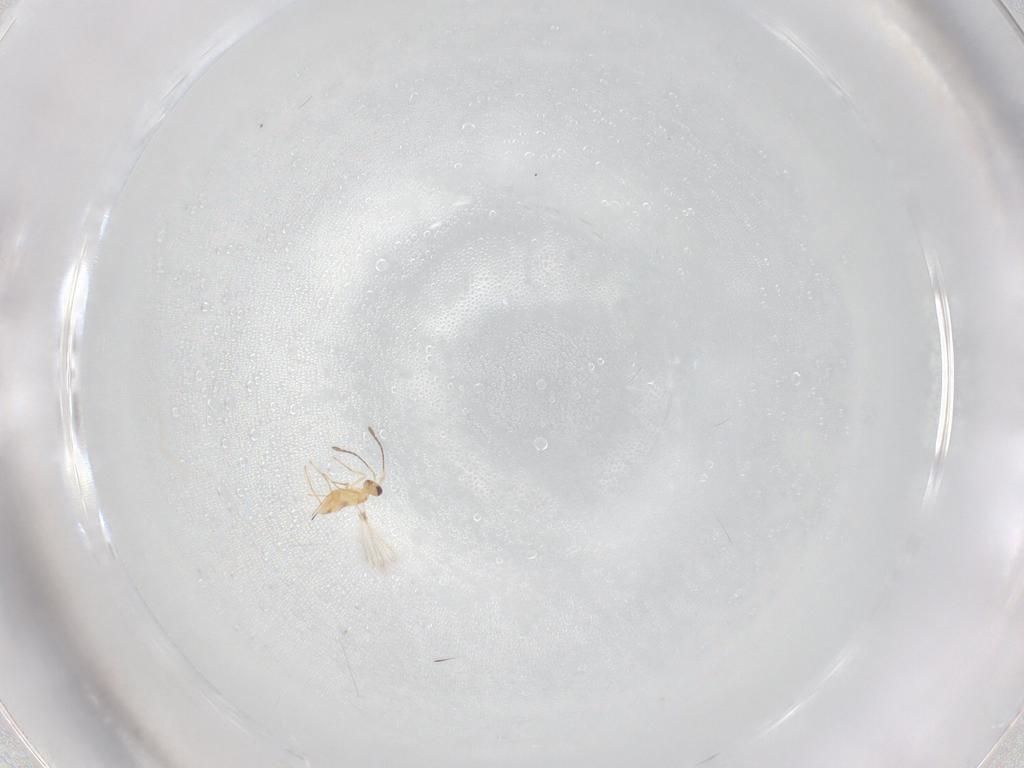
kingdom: Animalia
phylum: Arthropoda
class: Insecta
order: Hymenoptera
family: Mymaridae
